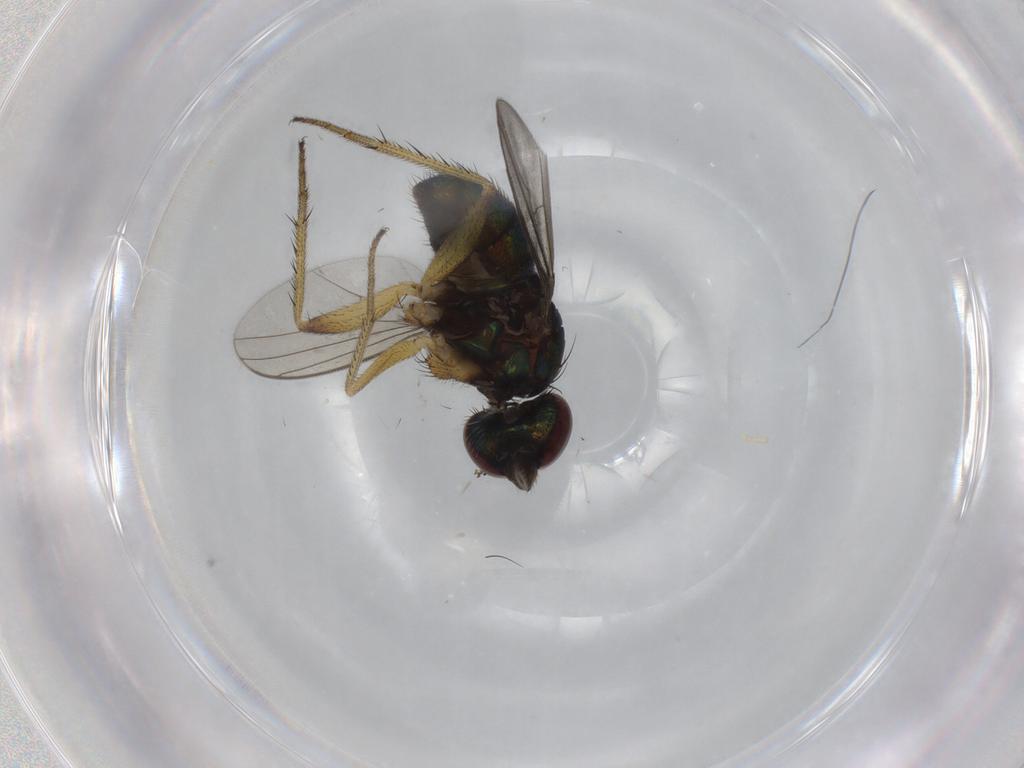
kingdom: Animalia
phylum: Arthropoda
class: Insecta
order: Diptera
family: Dolichopodidae
